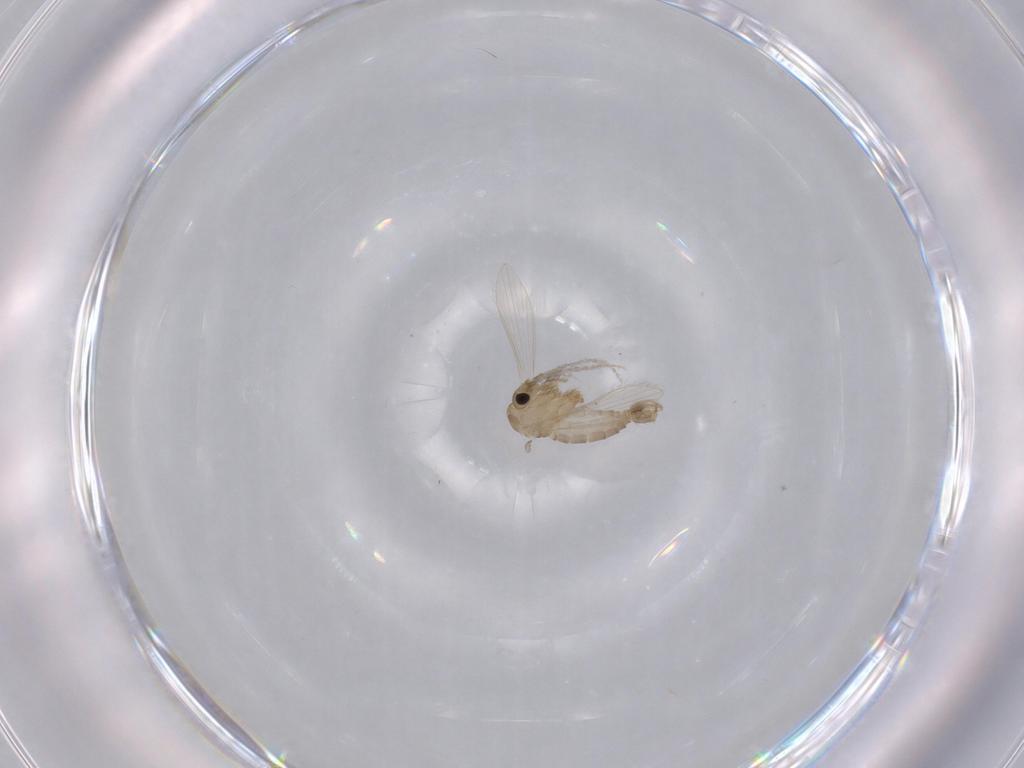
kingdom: Animalia
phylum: Arthropoda
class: Insecta
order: Diptera
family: Psychodidae
